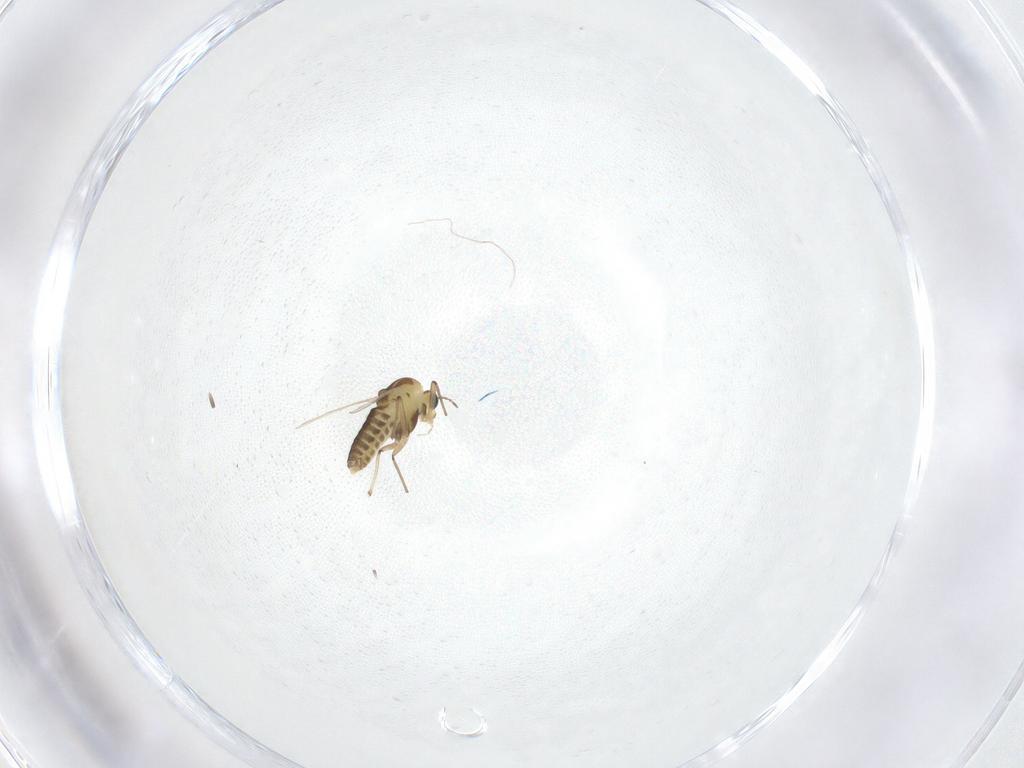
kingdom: Animalia
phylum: Arthropoda
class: Insecta
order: Diptera
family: Chironomidae
